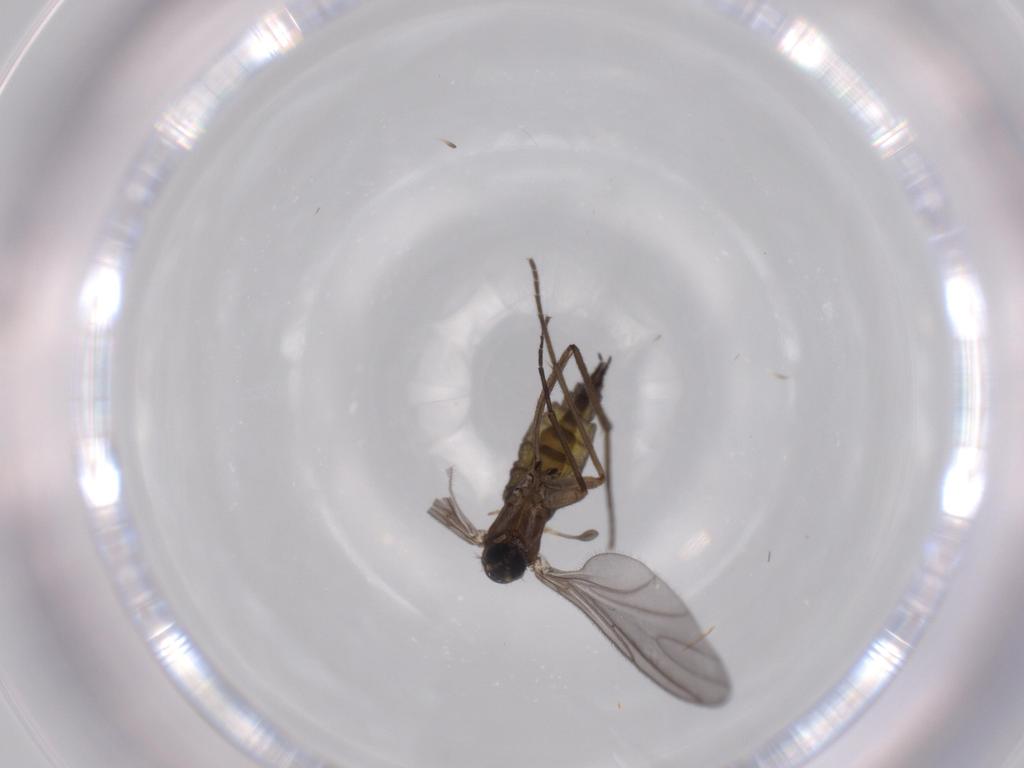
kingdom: Animalia
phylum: Arthropoda
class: Insecta
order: Diptera
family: Sciaridae
